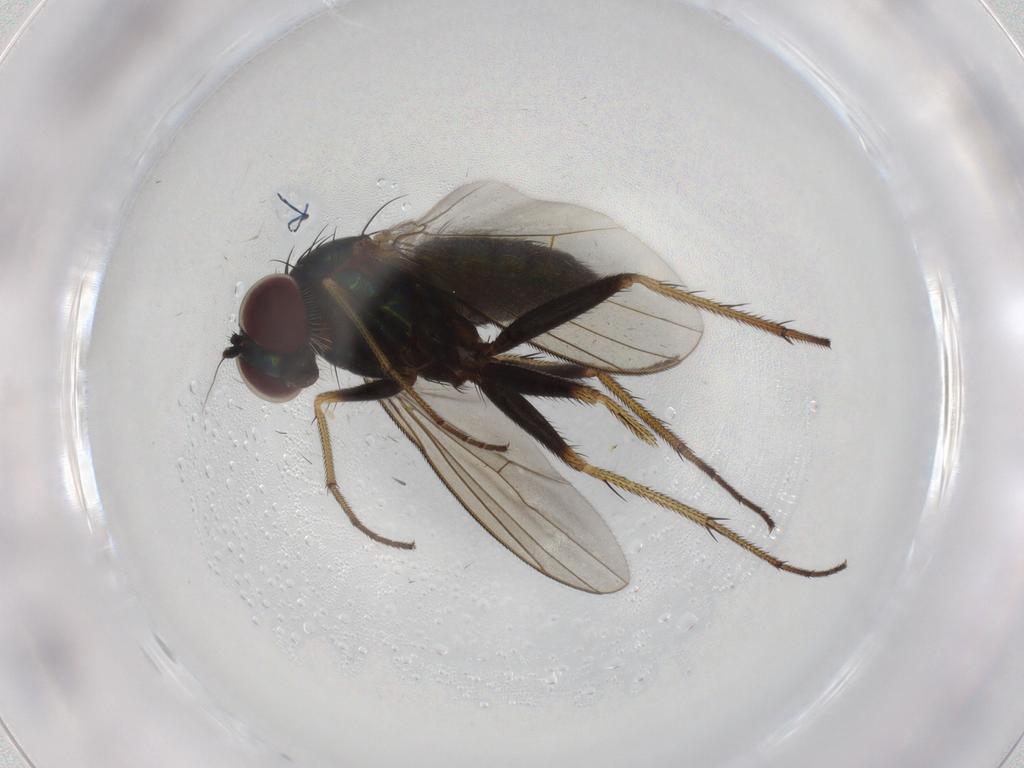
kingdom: Animalia
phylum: Arthropoda
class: Insecta
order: Diptera
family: Dolichopodidae
